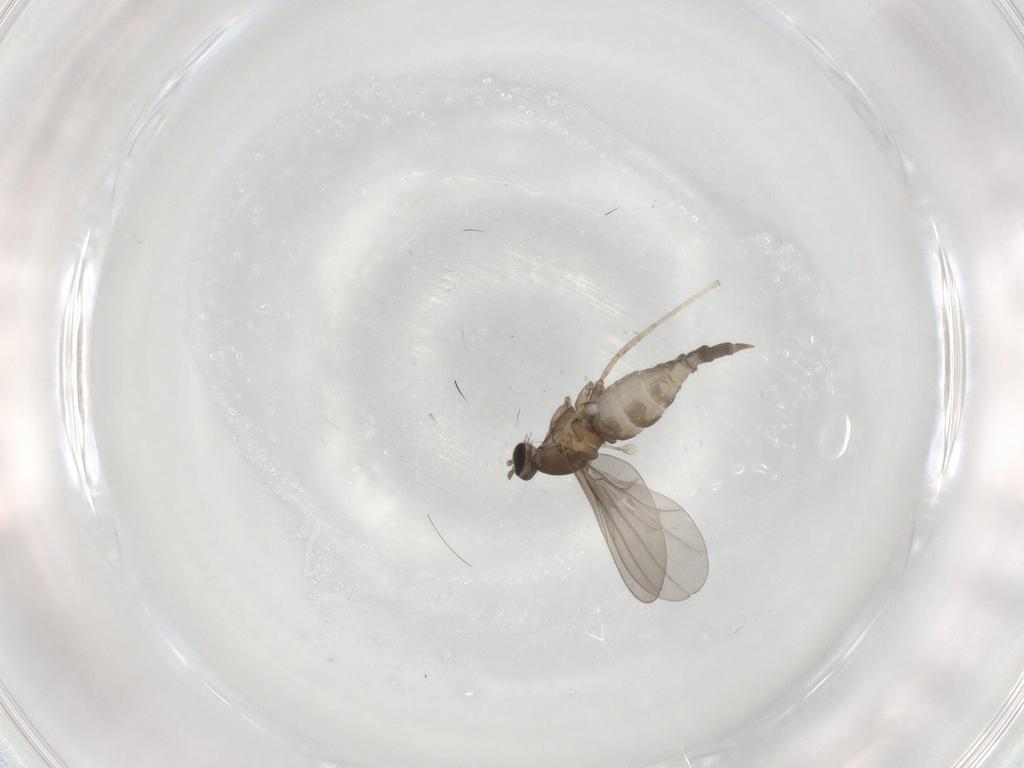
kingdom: Animalia
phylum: Arthropoda
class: Insecta
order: Diptera
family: Cecidomyiidae
